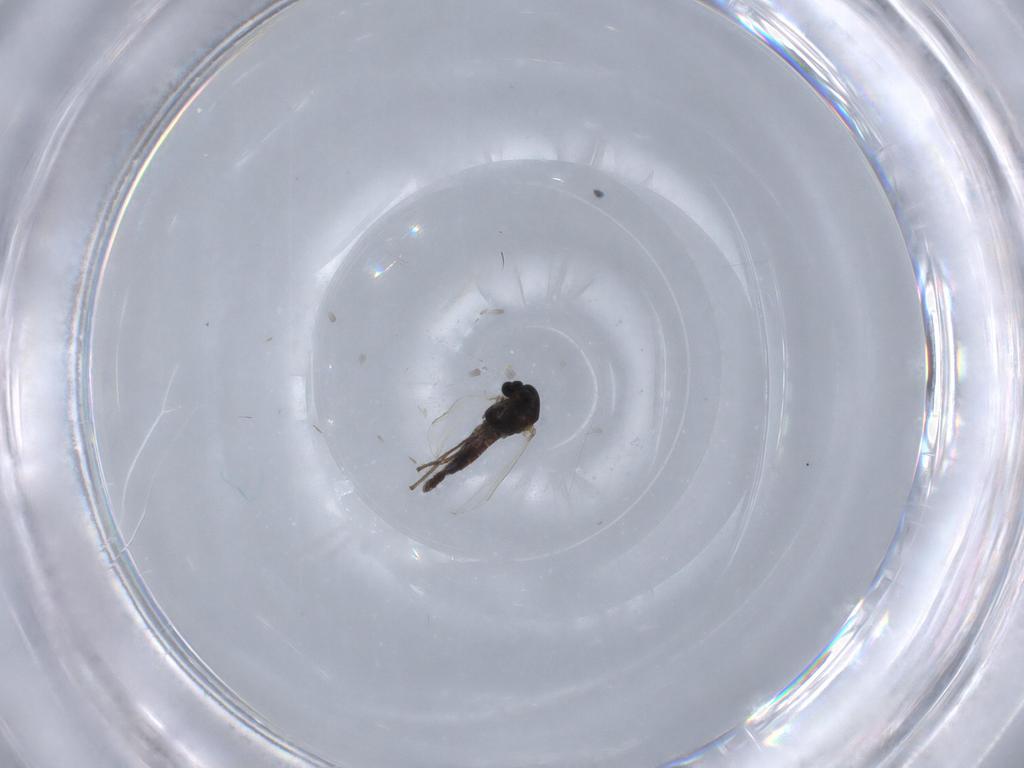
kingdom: Animalia
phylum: Arthropoda
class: Insecta
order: Diptera
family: Chironomidae
